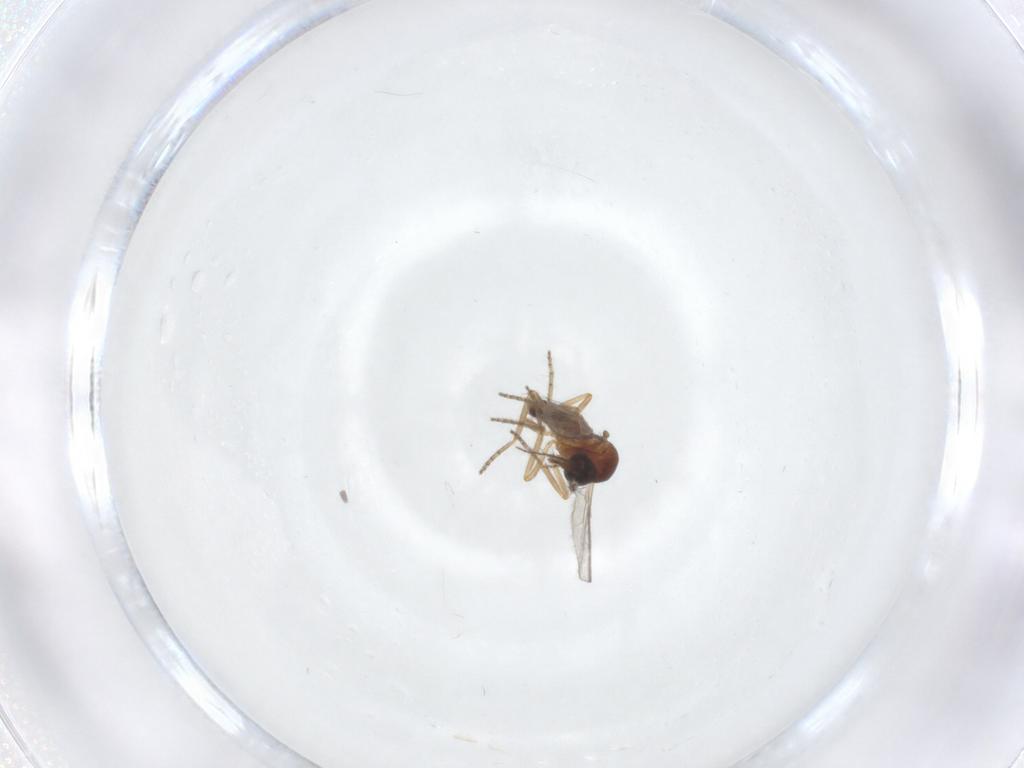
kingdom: Animalia
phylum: Arthropoda
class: Insecta
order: Diptera
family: Ceratopogonidae
